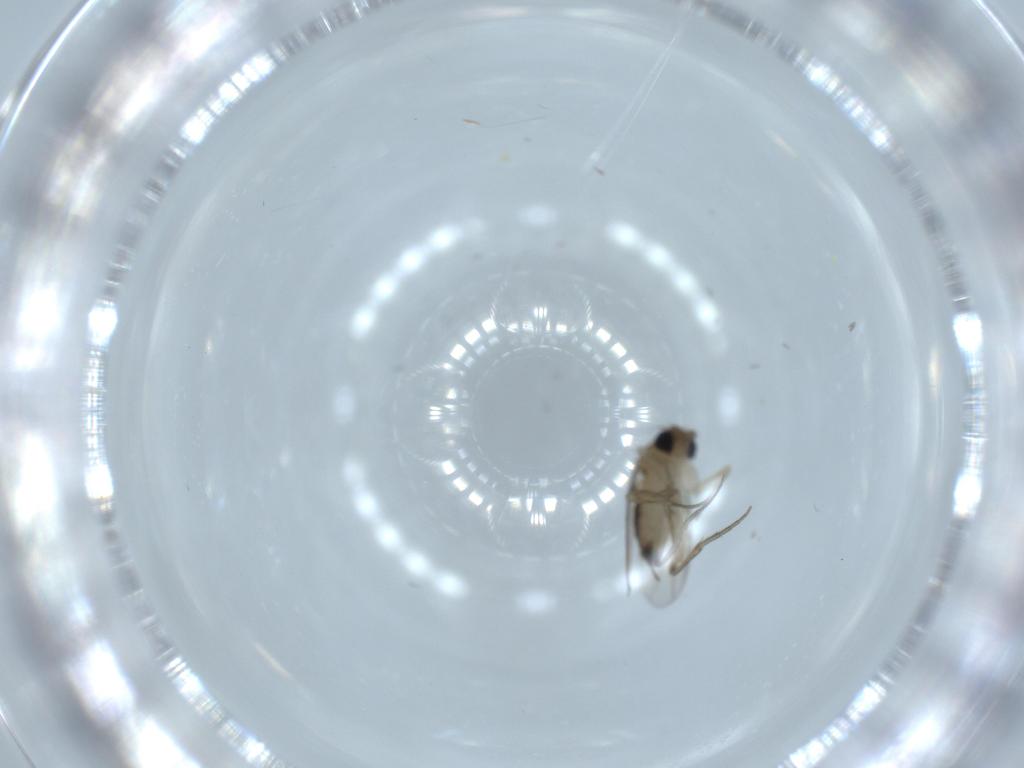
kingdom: Animalia
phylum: Arthropoda
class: Insecta
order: Diptera
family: Phoridae
